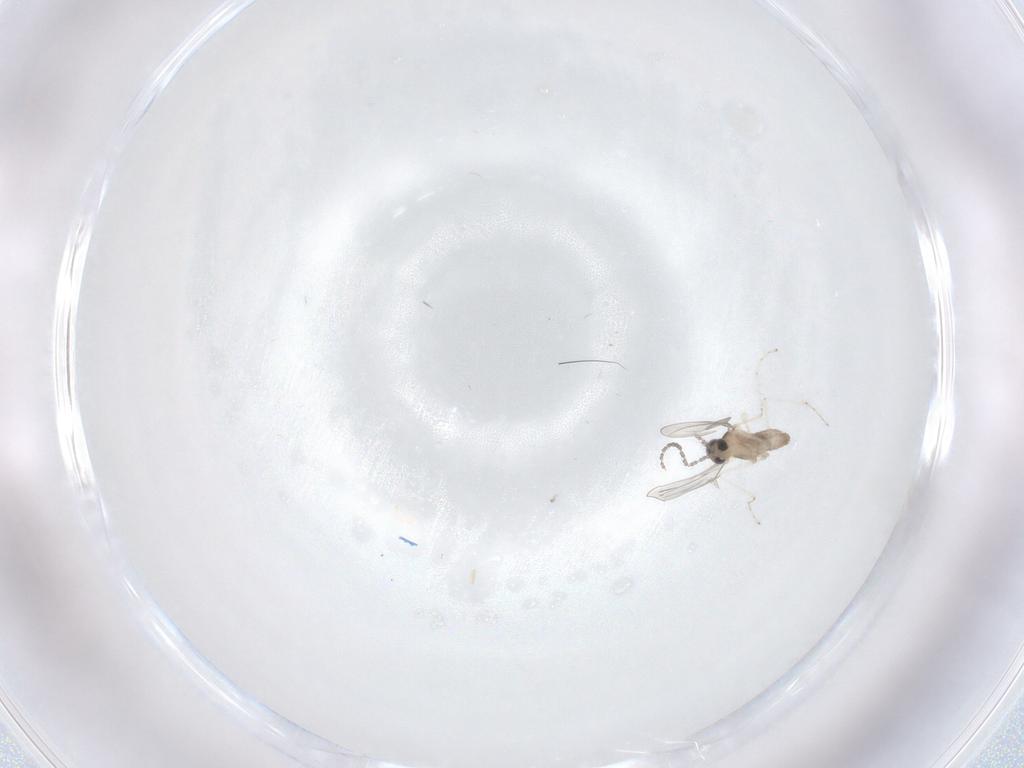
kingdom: Animalia
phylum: Arthropoda
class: Insecta
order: Diptera
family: Cecidomyiidae
